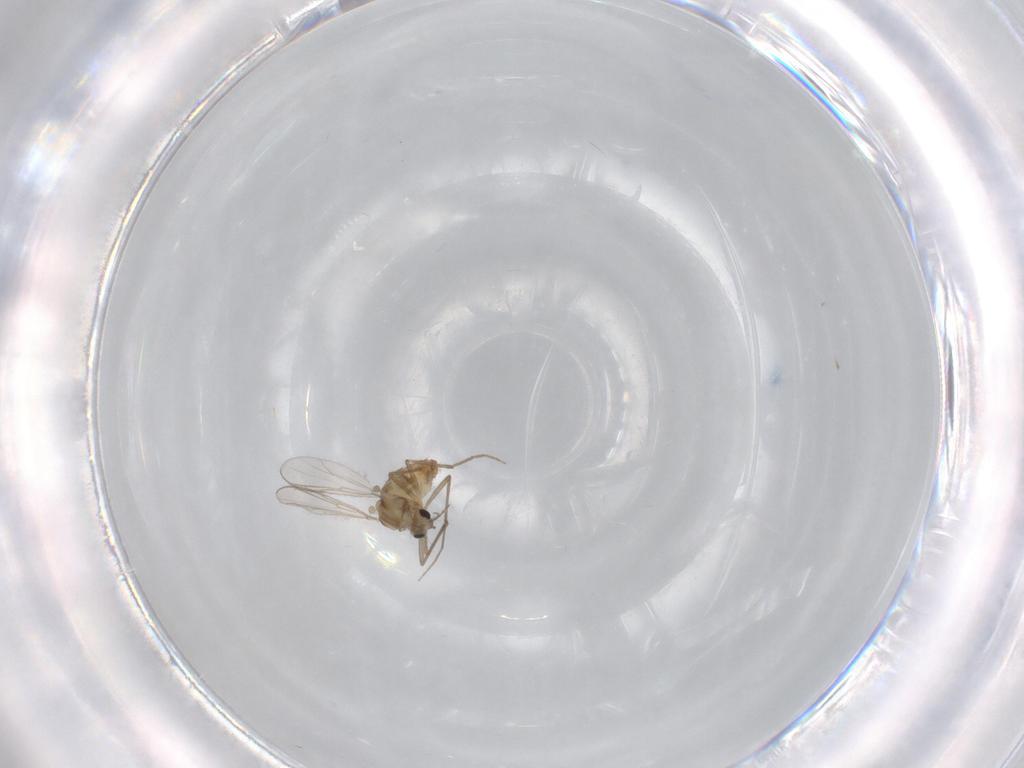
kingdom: Animalia
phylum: Arthropoda
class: Insecta
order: Diptera
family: Chironomidae
